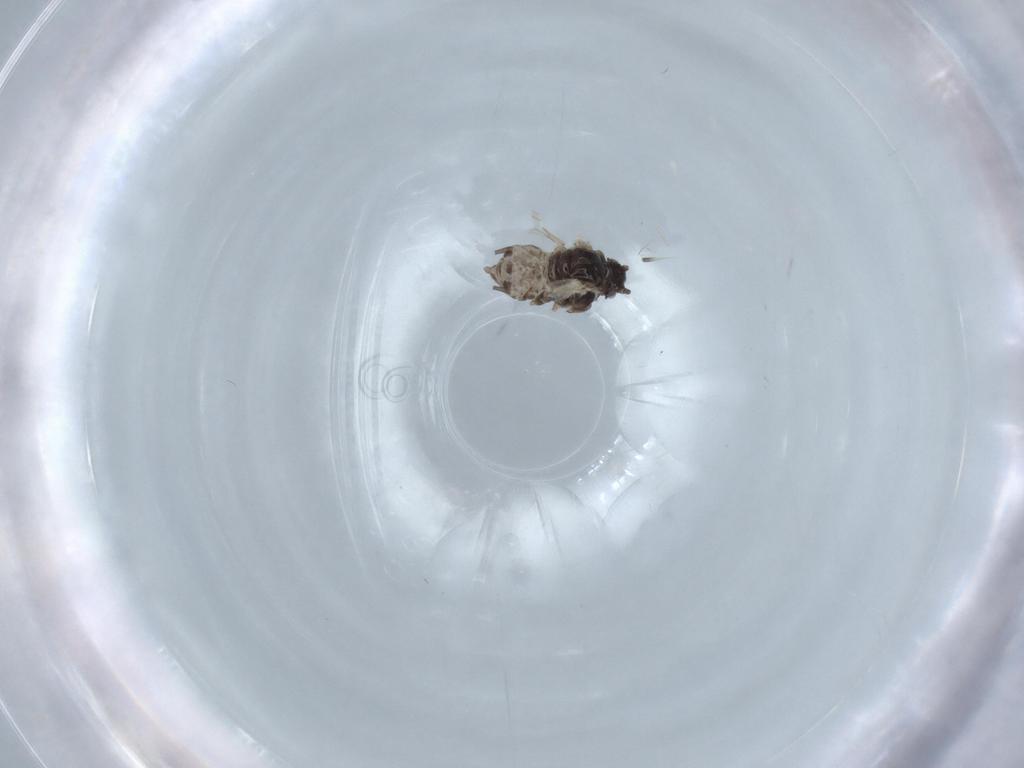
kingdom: Animalia
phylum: Arthropoda
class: Insecta
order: Hemiptera
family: Aphididae
